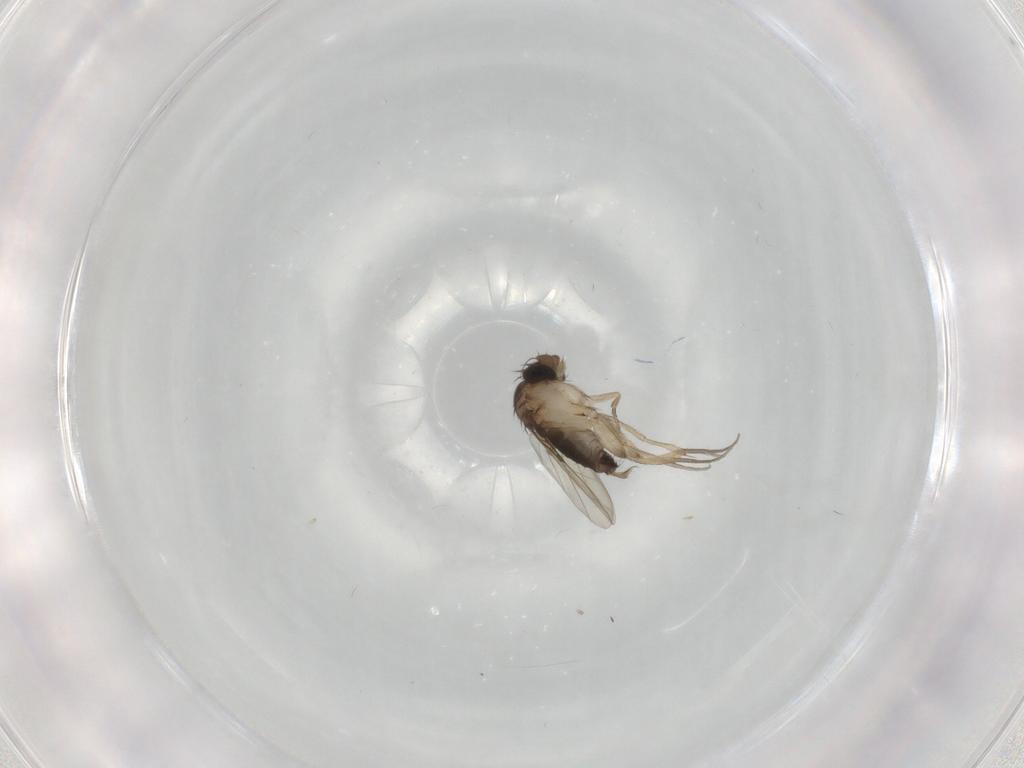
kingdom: Animalia
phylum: Arthropoda
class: Insecta
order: Diptera
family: Phoridae
